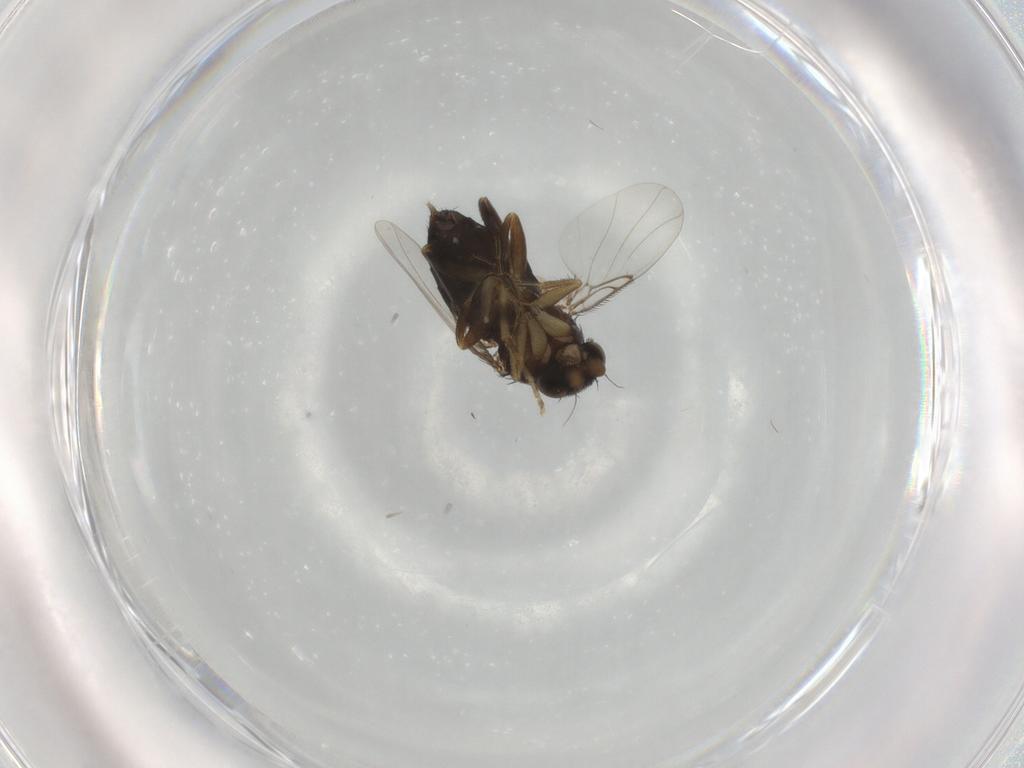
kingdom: Animalia
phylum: Arthropoda
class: Insecta
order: Diptera
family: Phoridae
